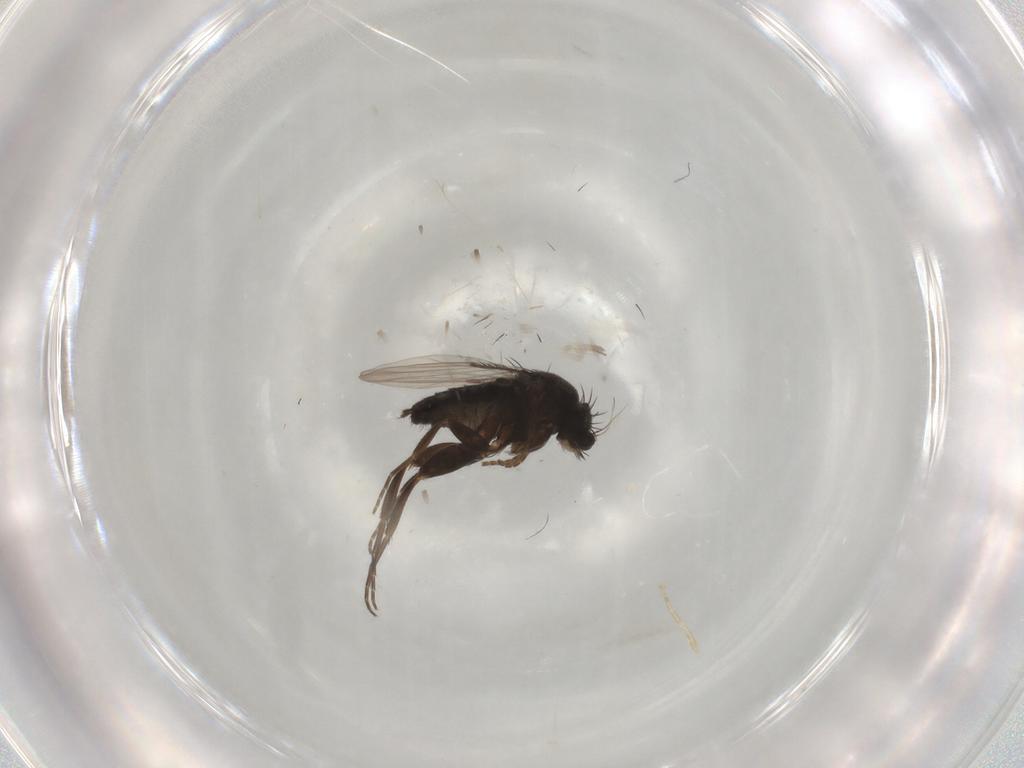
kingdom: Animalia
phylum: Arthropoda
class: Insecta
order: Diptera
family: Phoridae
